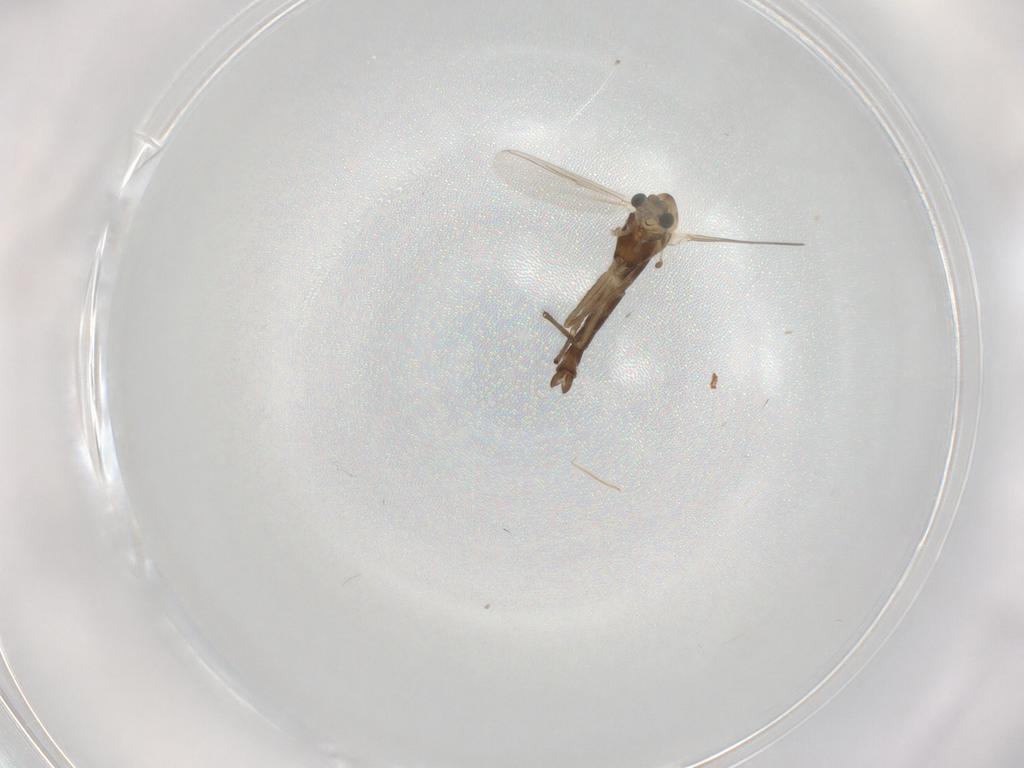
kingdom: Animalia
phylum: Arthropoda
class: Insecta
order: Diptera
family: Chironomidae
